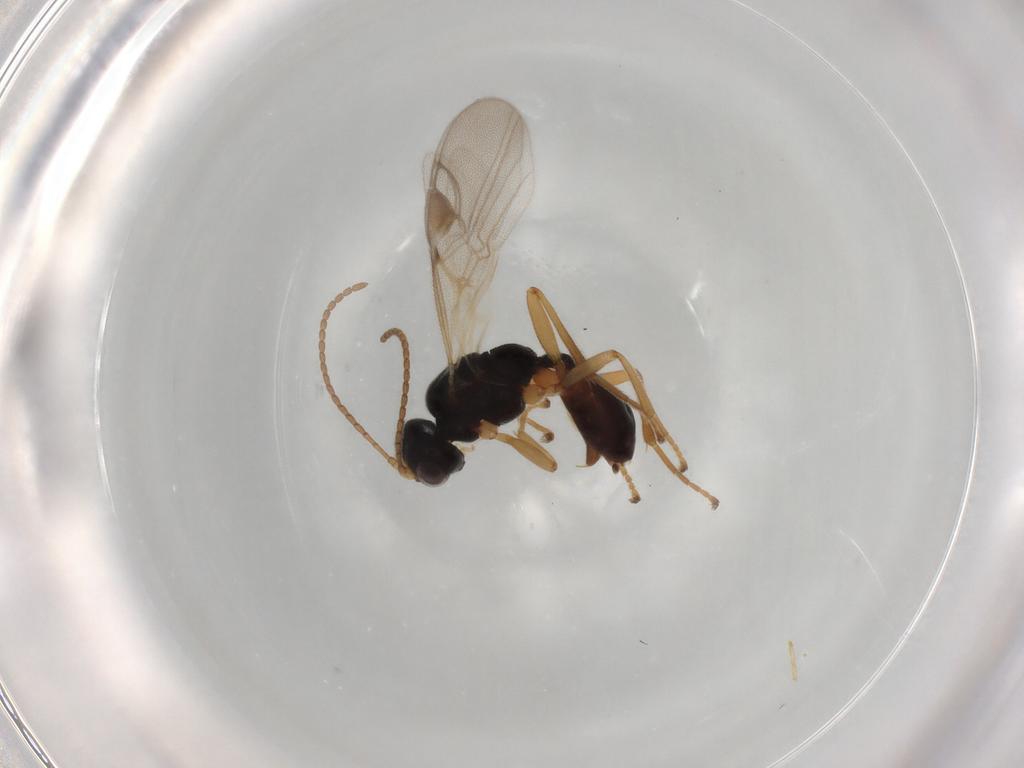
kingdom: Animalia
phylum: Arthropoda
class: Insecta
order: Hymenoptera
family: Braconidae
